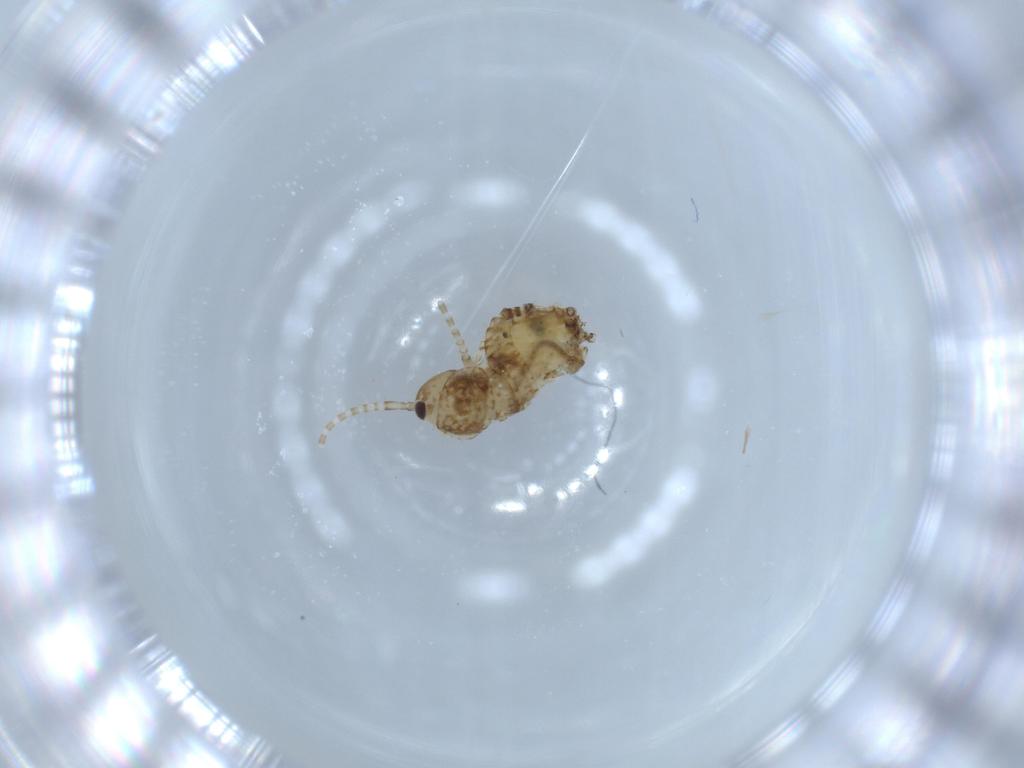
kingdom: Animalia
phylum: Arthropoda
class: Insecta
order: Blattodea
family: Ectobiidae
